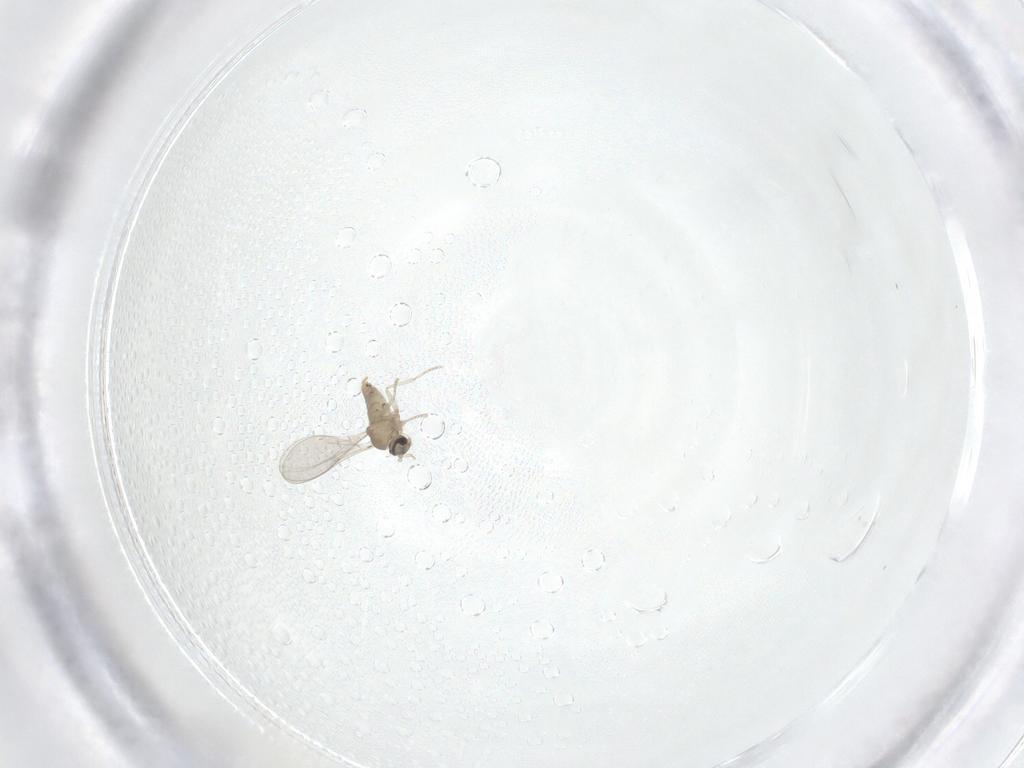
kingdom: Animalia
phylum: Arthropoda
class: Insecta
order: Diptera
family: Cecidomyiidae
